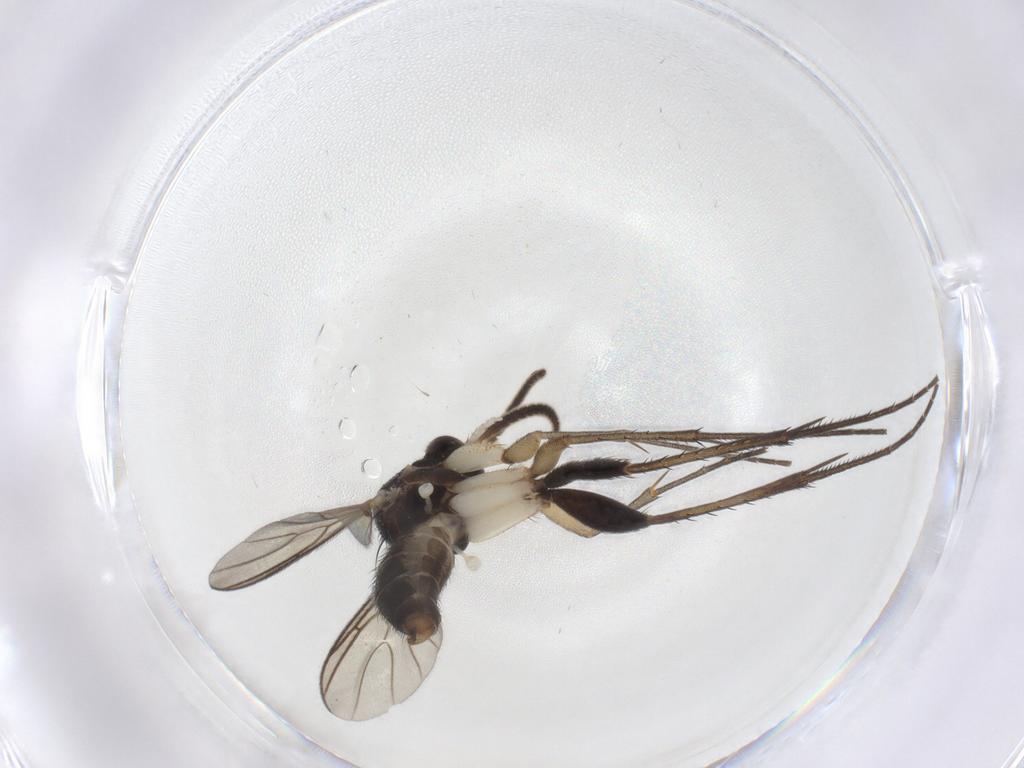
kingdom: Animalia
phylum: Arthropoda
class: Insecta
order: Diptera
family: Mycetophilidae
